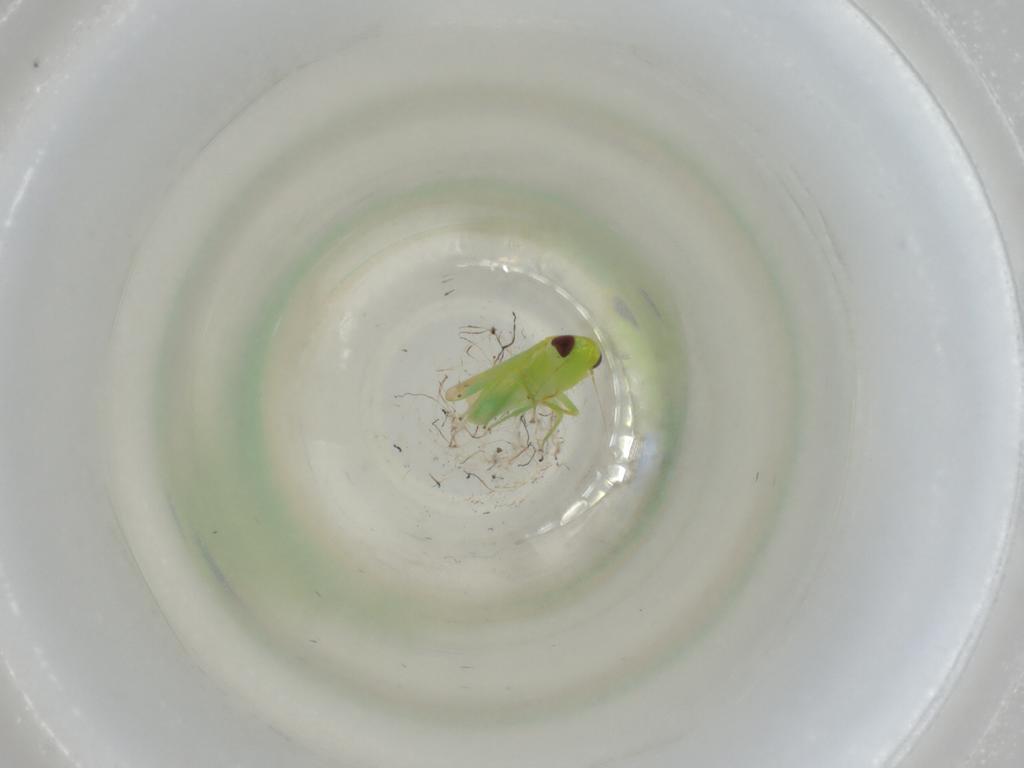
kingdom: Animalia
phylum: Arthropoda
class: Insecta
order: Hemiptera
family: Cicadellidae
